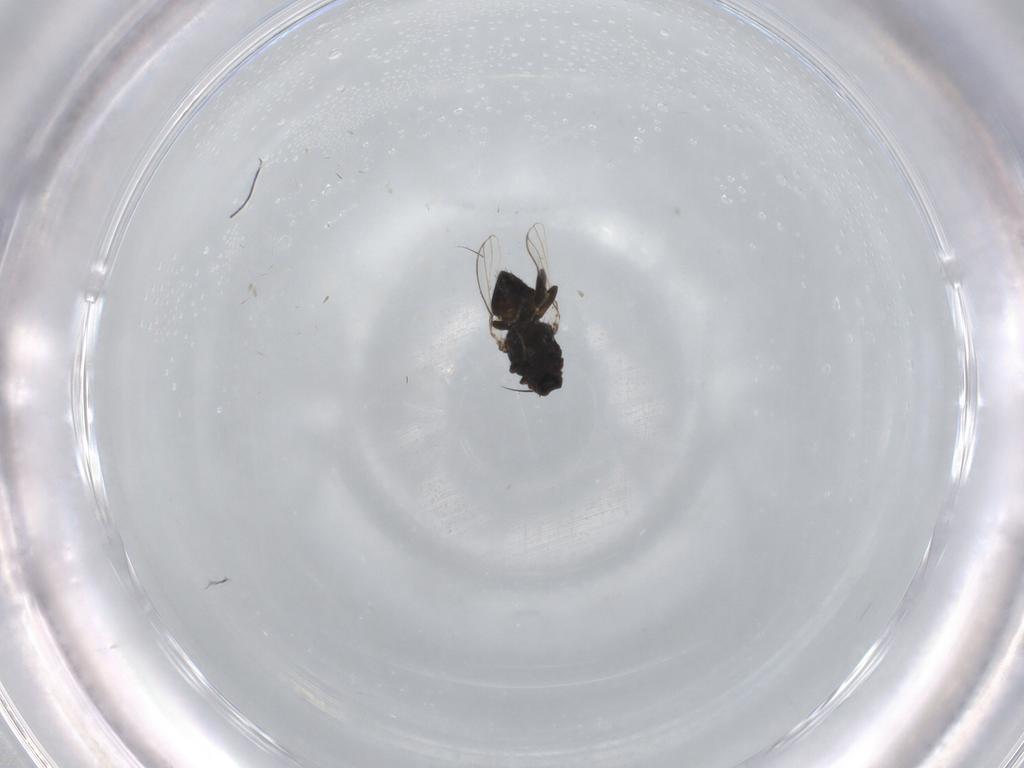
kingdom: Animalia
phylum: Arthropoda
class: Insecta
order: Diptera
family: Milichiidae
